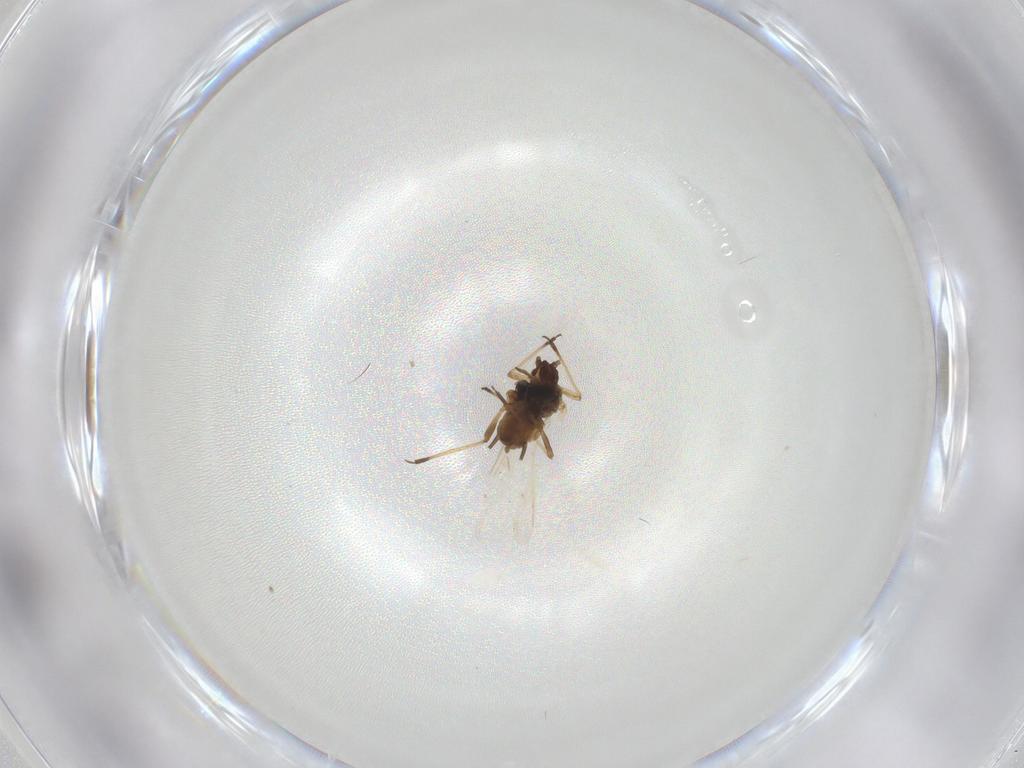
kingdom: Animalia
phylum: Arthropoda
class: Insecta
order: Hemiptera
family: Aphididae
